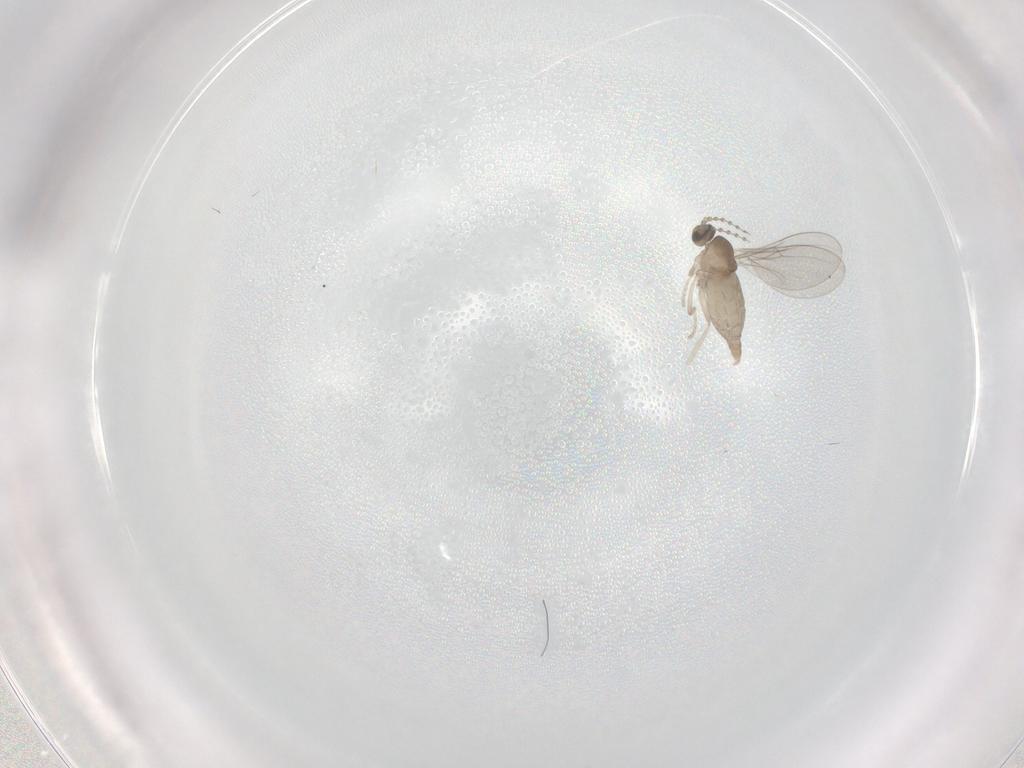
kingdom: Animalia
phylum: Arthropoda
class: Insecta
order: Diptera
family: Cecidomyiidae
